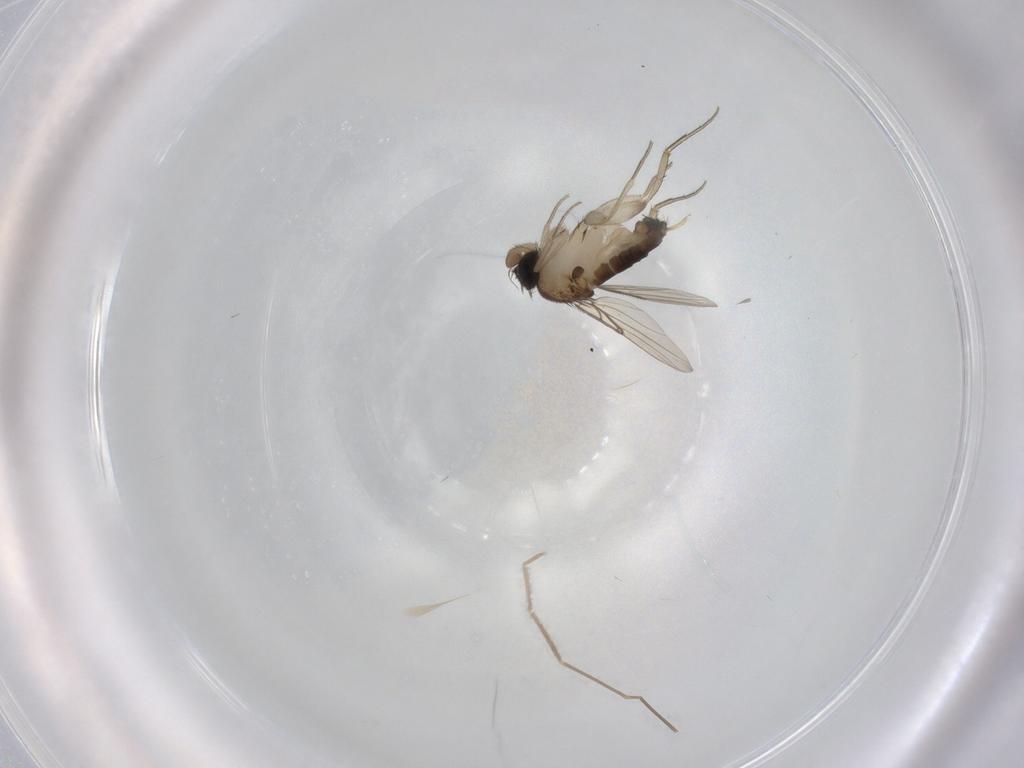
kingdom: Animalia
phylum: Arthropoda
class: Insecta
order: Diptera
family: Phoridae
